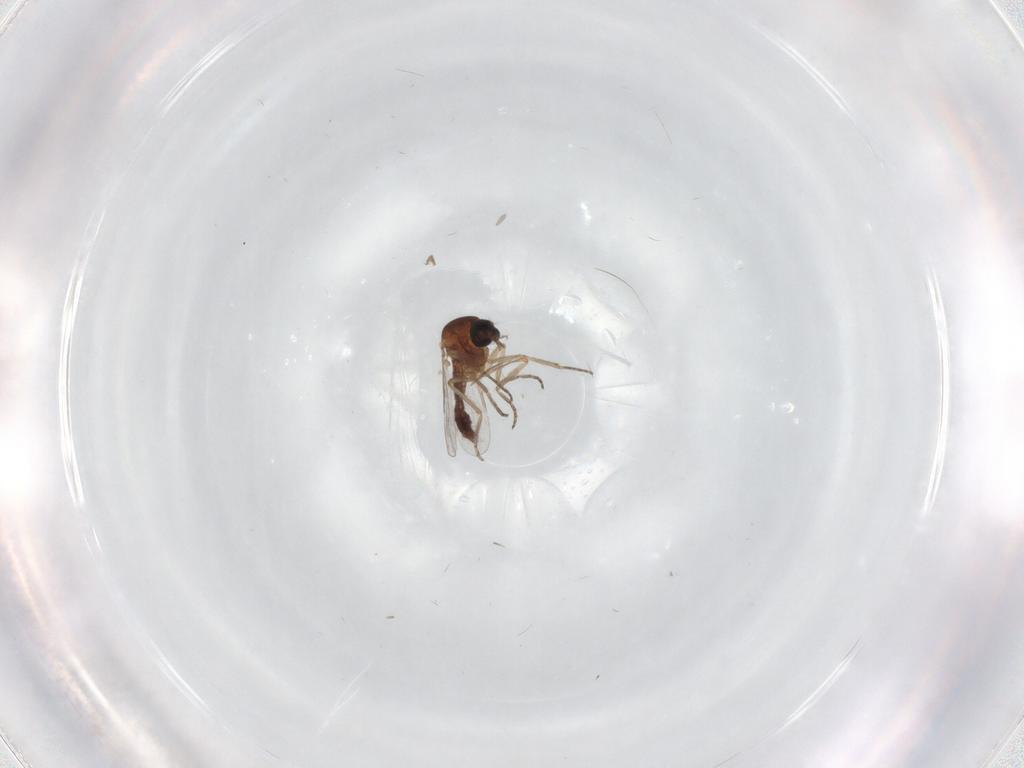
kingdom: Animalia
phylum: Arthropoda
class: Insecta
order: Diptera
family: Ceratopogonidae
